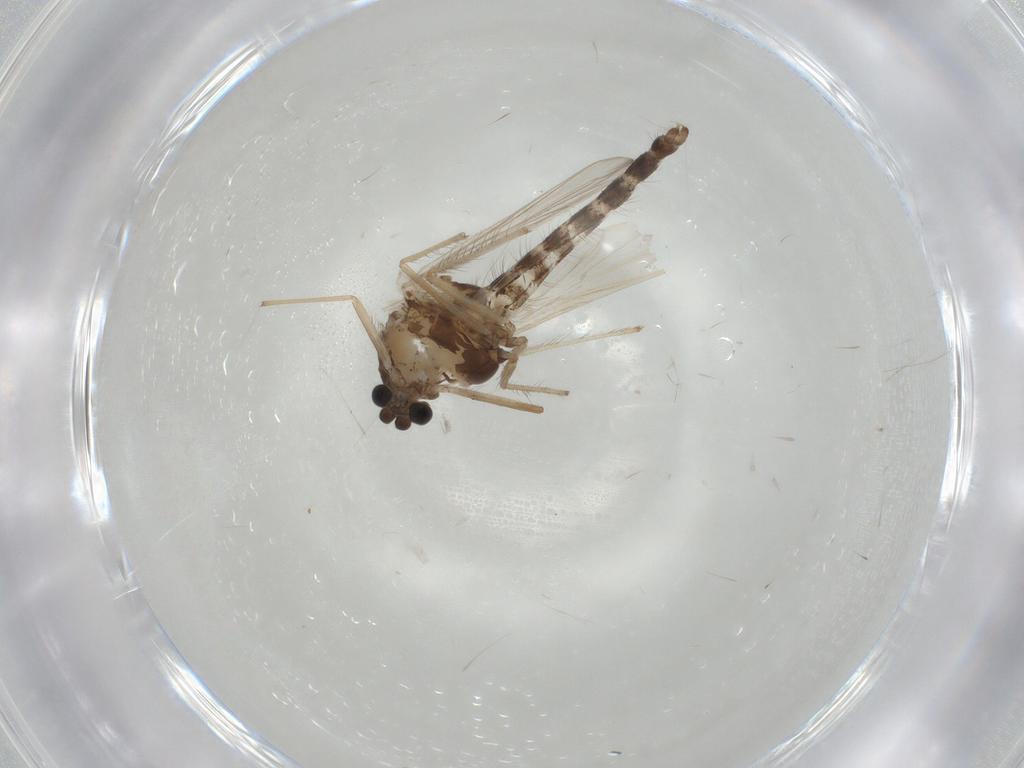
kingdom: Animalia
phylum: Arthropoda
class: Insecta
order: Diptera
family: Chironomidae
